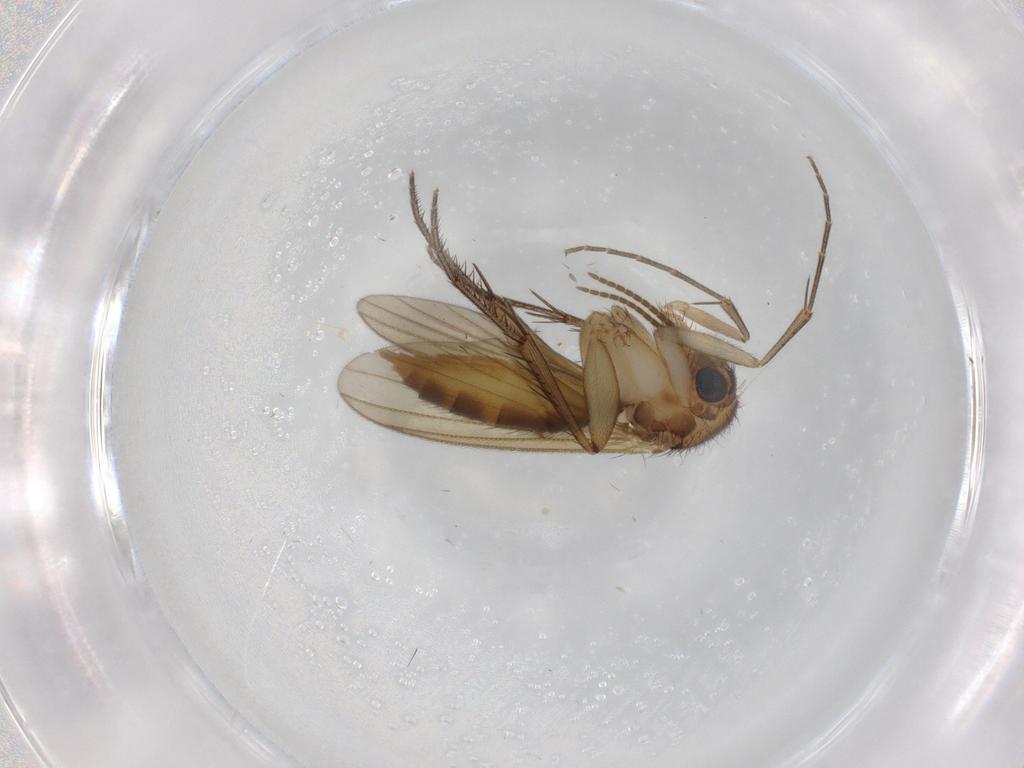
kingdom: Animalia
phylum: Arthropoda
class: Insecta
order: Diptera
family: Mycetophilidae
